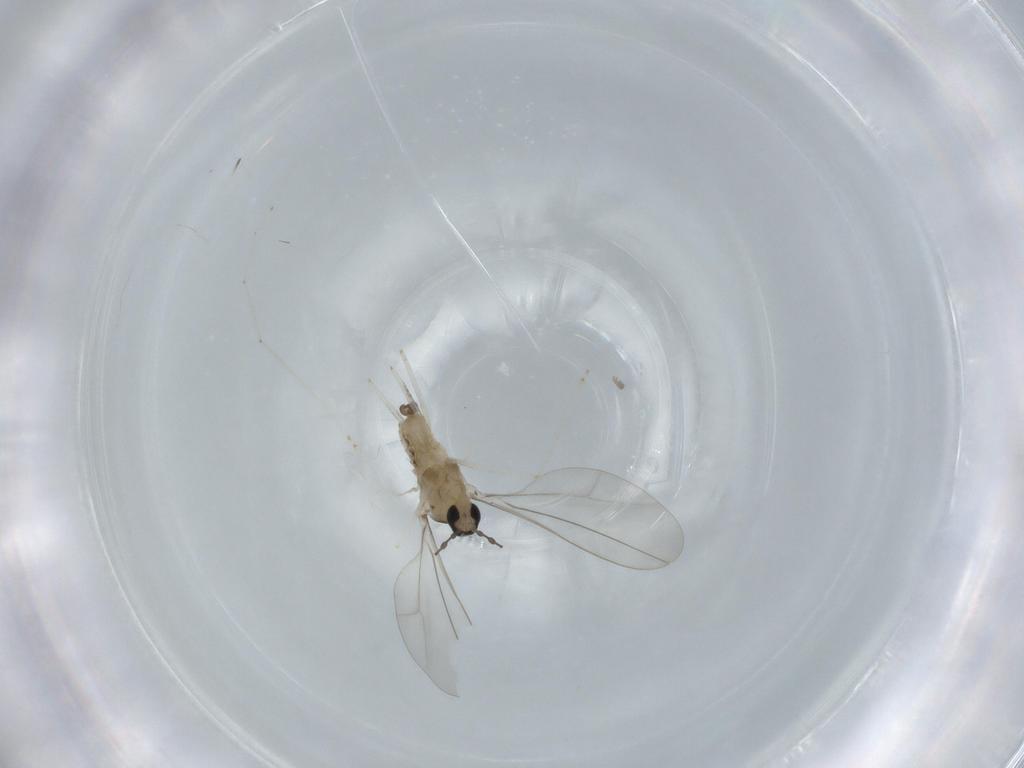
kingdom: Animalia
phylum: Arthropoda
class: Insecta
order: Diptera
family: Cecidomyiidae
